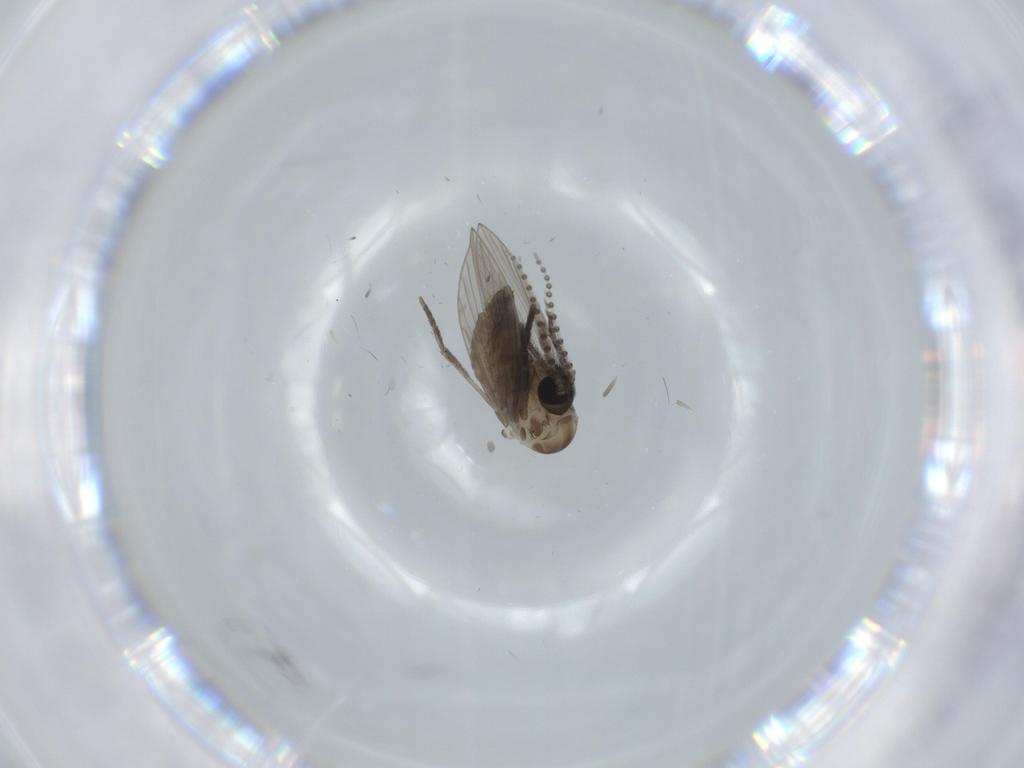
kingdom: Animalia
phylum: Arthropoda
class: Insecta
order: Diptera
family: Psychodidae
